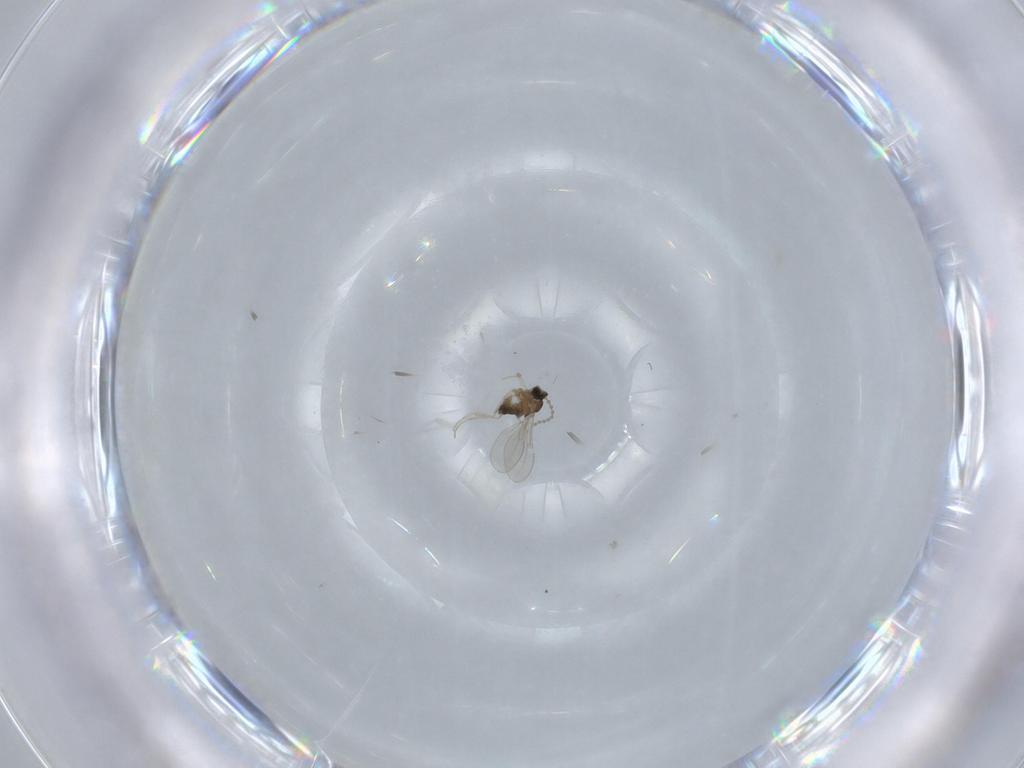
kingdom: Animalia
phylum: Arthropoda
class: Insecta
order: Diptera
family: Psychodidae
